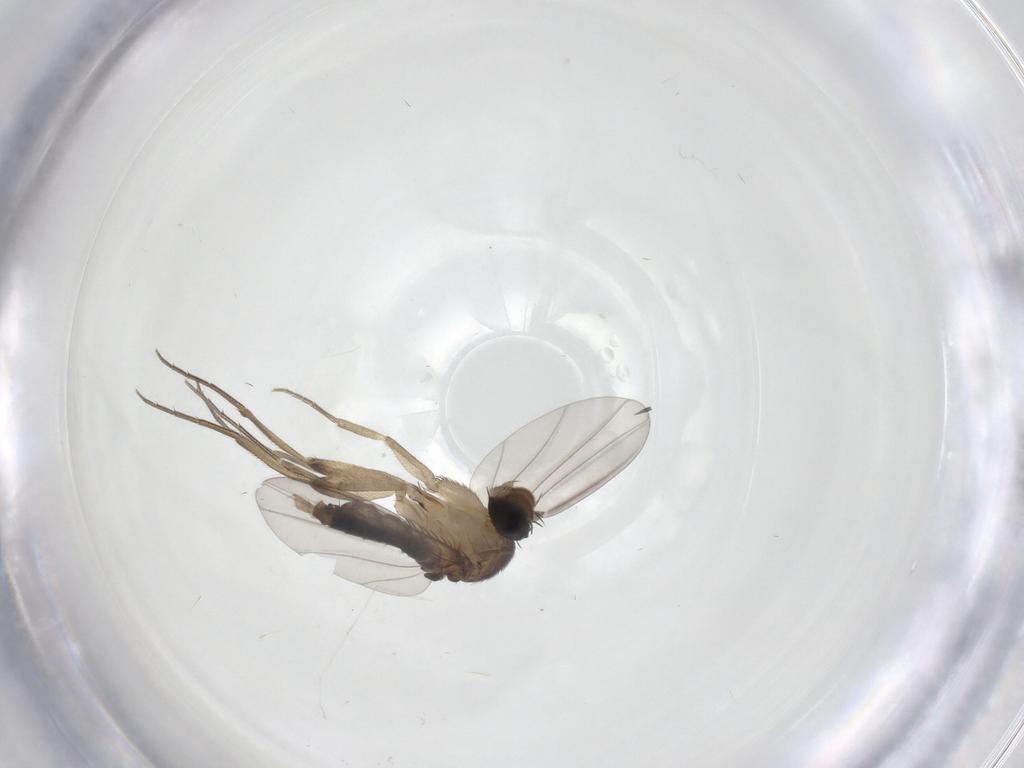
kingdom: Animalia
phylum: Arthropoda
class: Insecta
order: Diptera
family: Phoridae
